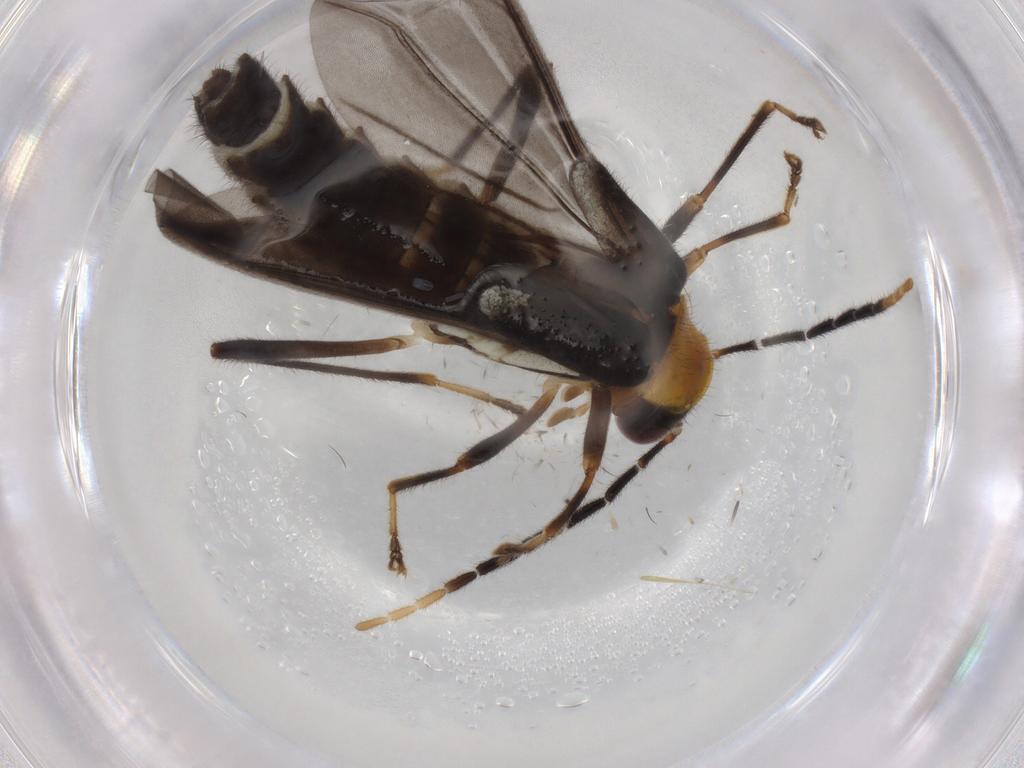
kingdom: Animalia
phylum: Arthropoda
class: Insecta
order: Coleoptera
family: Cantharidae
